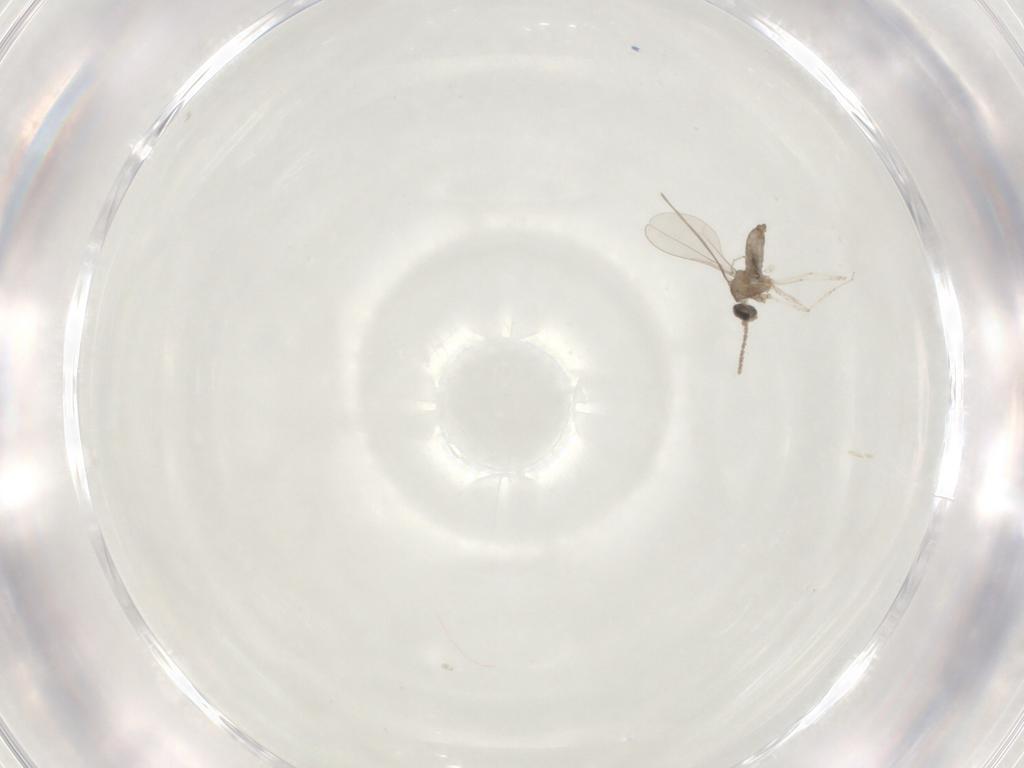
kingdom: Animalia
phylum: Arthropoda
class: Insecta
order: Diptera
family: Cecidomyiidae
